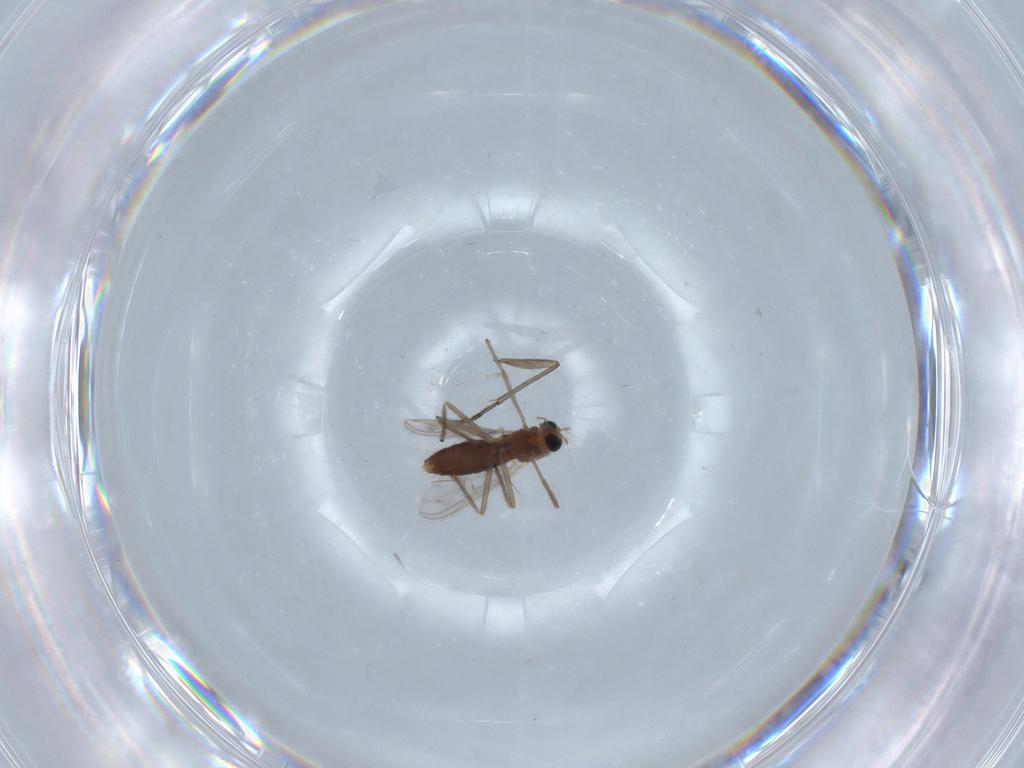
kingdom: Animalia
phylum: Arthropoda
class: Insecta
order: Diptera
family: Chironomidae
